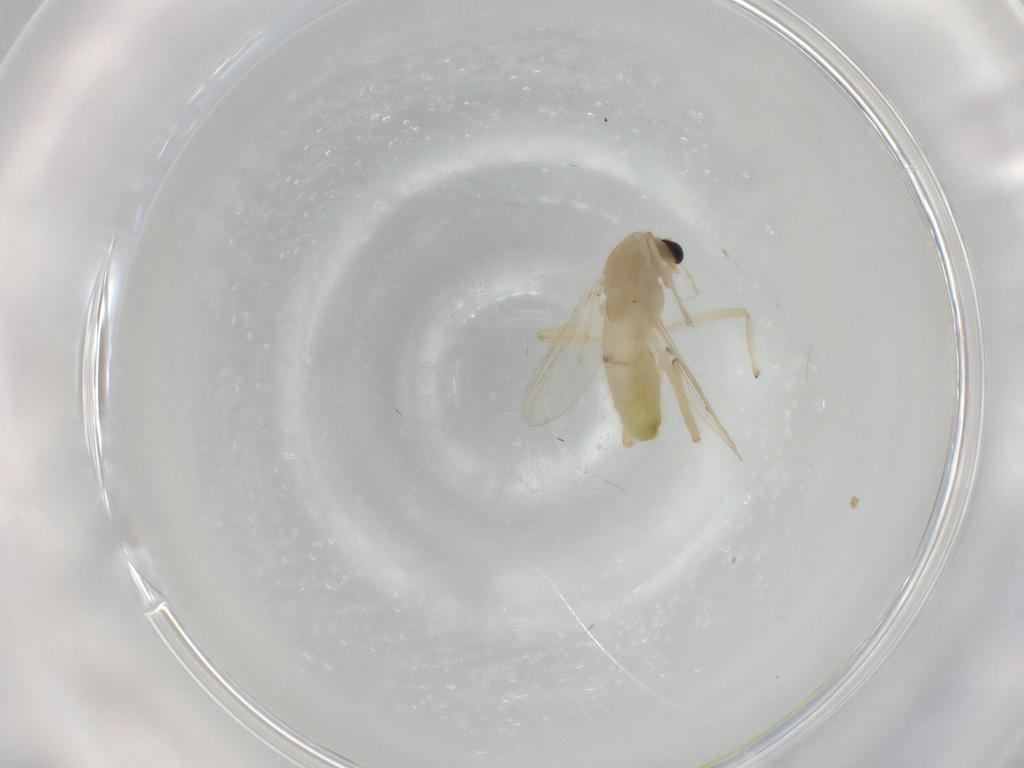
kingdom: Animalia
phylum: Arthropoda
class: Insecta
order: Diptera
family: Chironomidae
